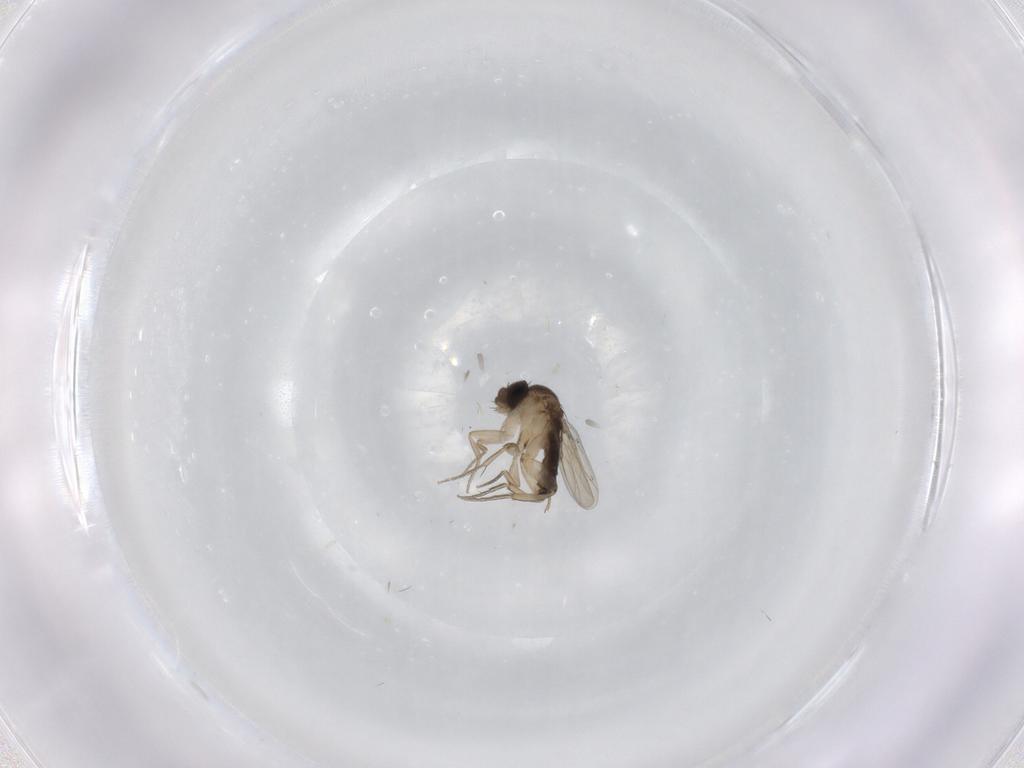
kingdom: Animalia
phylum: Arthropoda
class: Insecta
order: Diptera
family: Phoridae
